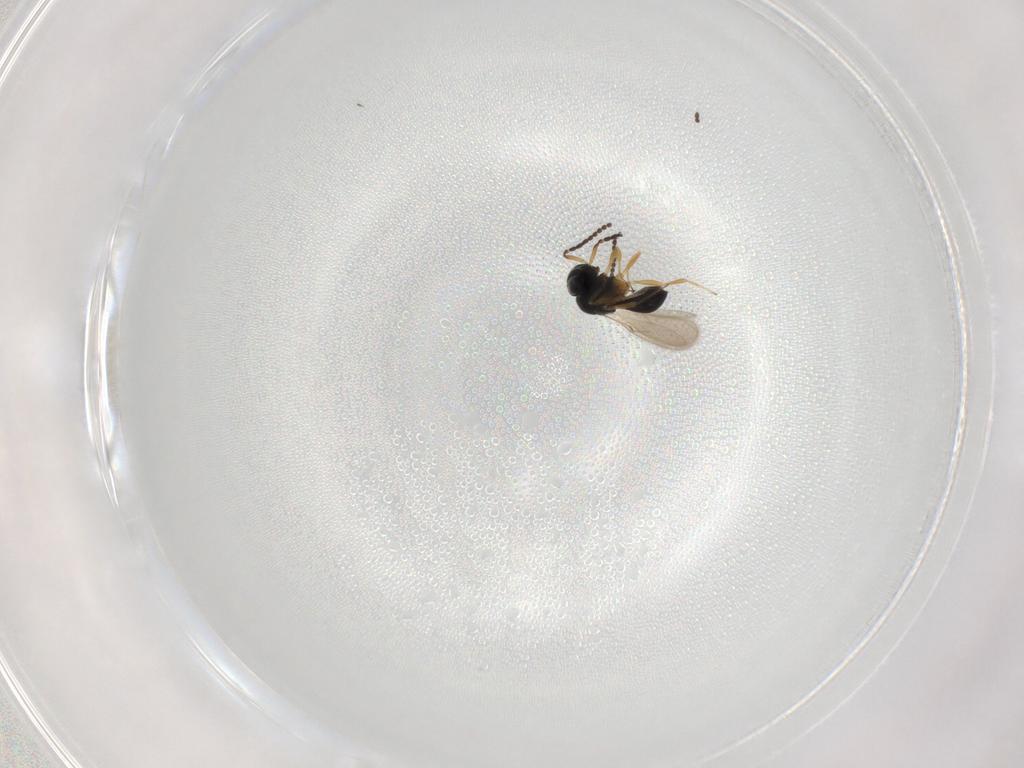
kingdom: Animalia
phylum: Arthropoda
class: Insecta
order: Hymenoptera
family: Scelionidae
